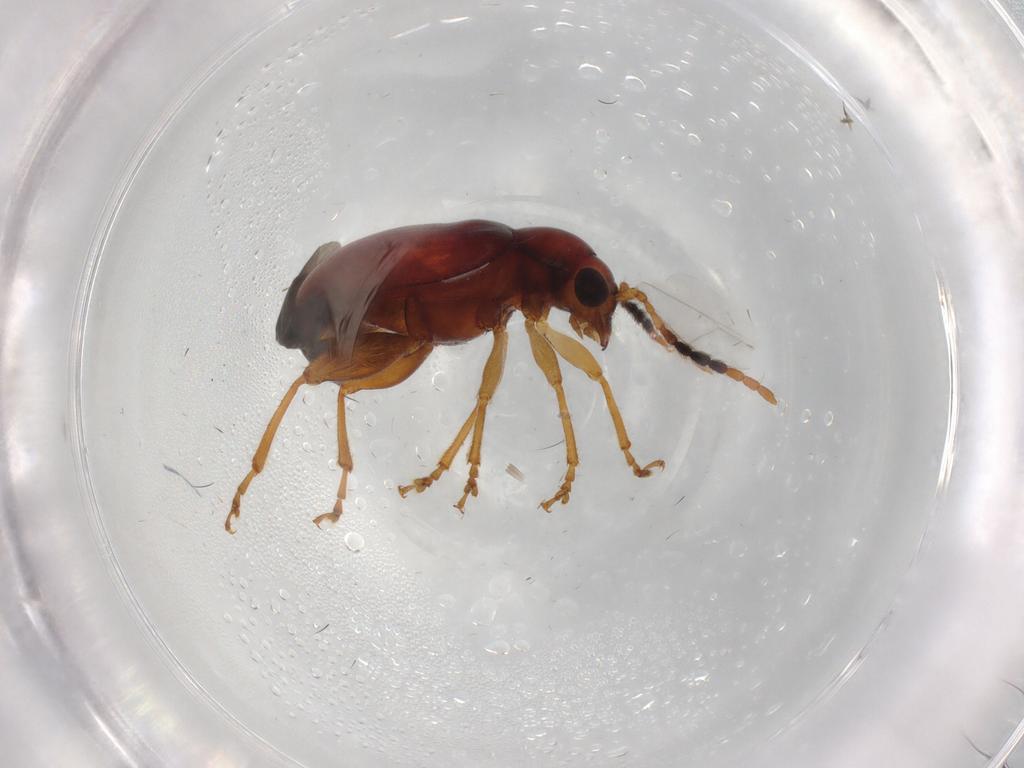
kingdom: Animalia
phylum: Arthropoda
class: Insecta
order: Coleoptera
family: Chrysomelidae
